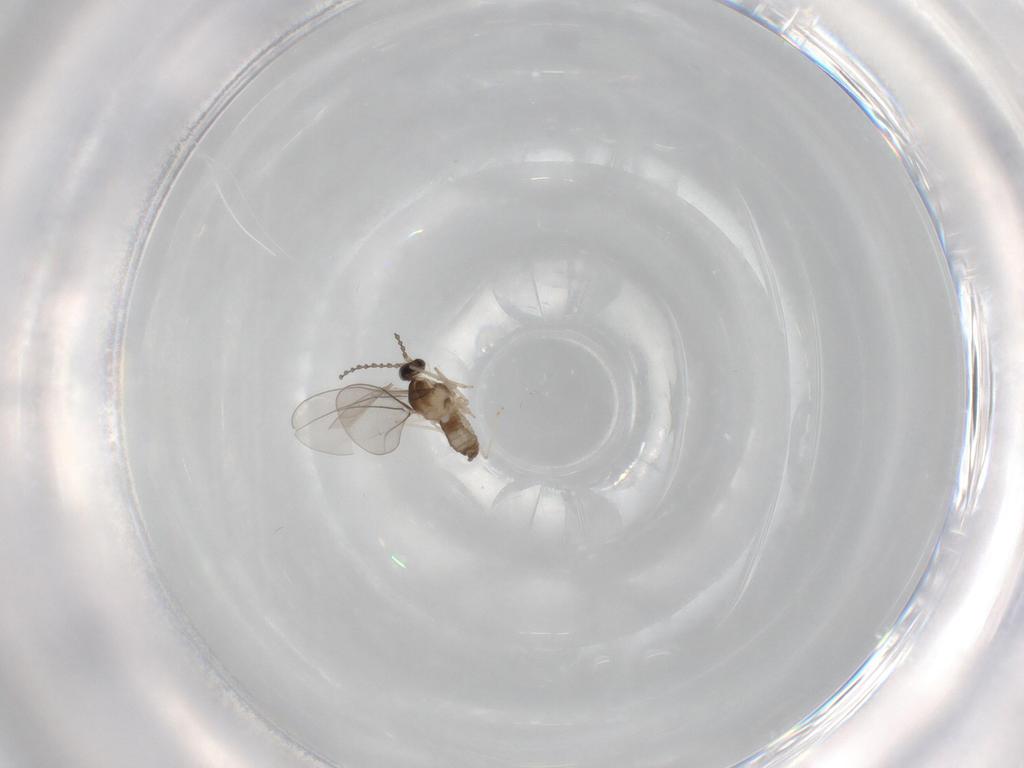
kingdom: Animalia
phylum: Arthropoda
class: Insecta
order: Diptera
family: Cecidomyiidae
